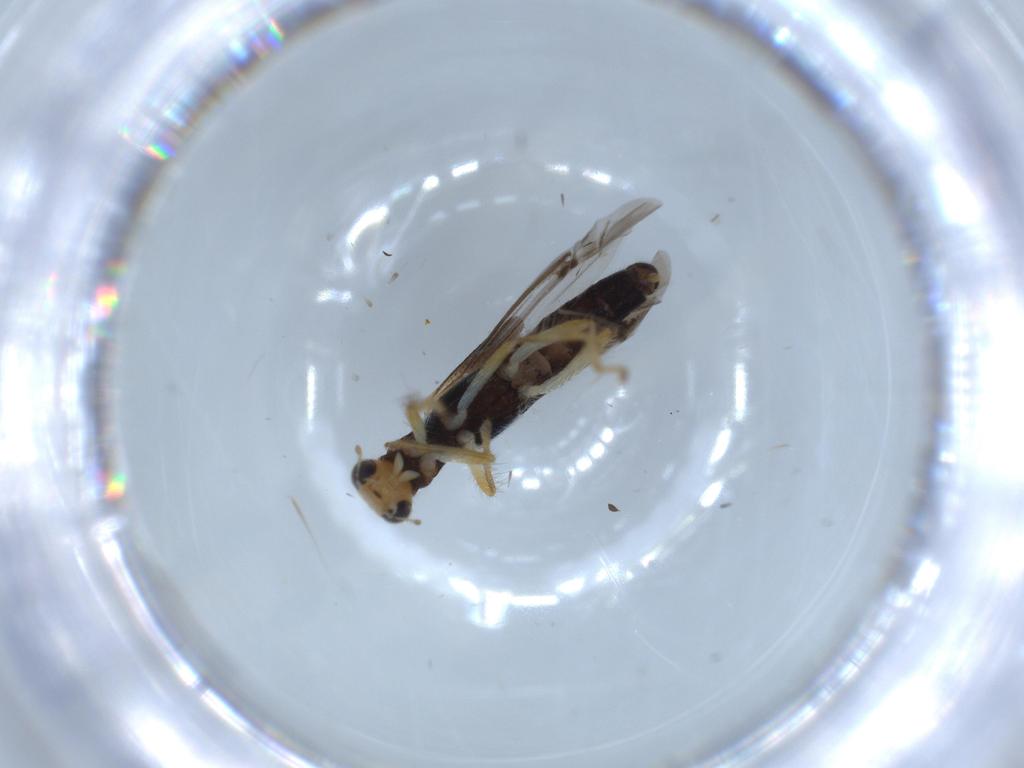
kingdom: Animalia
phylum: Arthropoda
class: Insecta
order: Coleoptera
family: Cleridae
